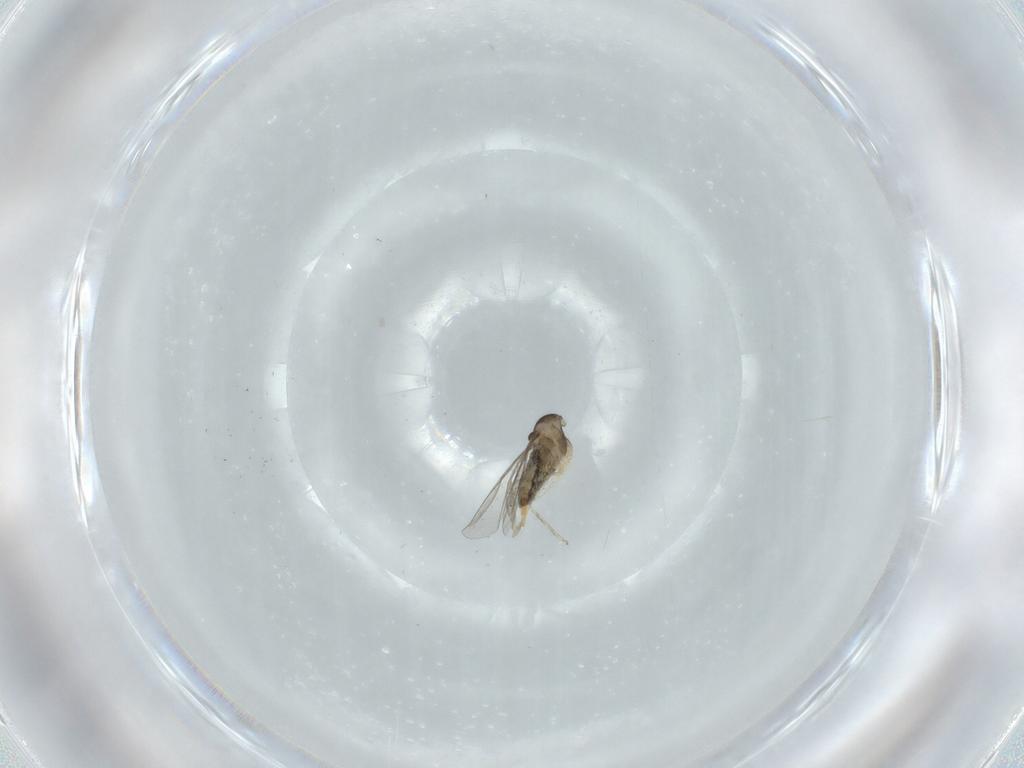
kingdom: Animalia
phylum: Arthropoda
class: Insecta
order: Diptera
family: Cecidomyiidae
